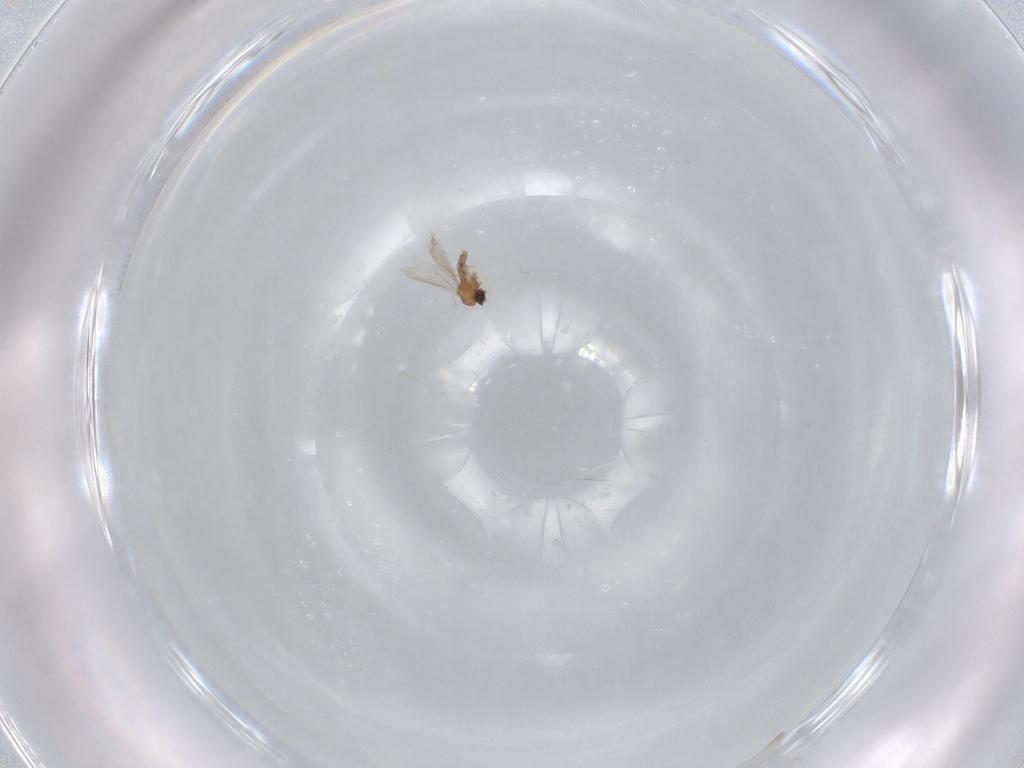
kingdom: Animalia
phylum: Arthropoda
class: Insecta
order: Diptera
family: Cecidomyiidae
